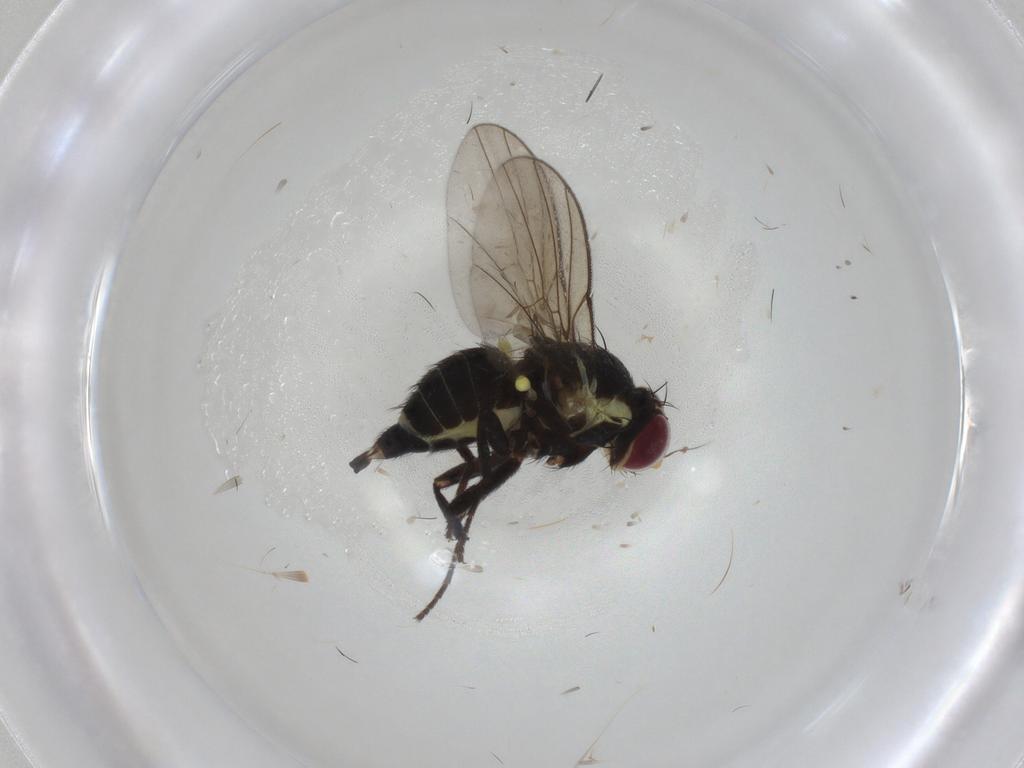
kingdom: Animalia
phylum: Arthropoda
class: Insecta
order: Diptera
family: Agromyzidae
